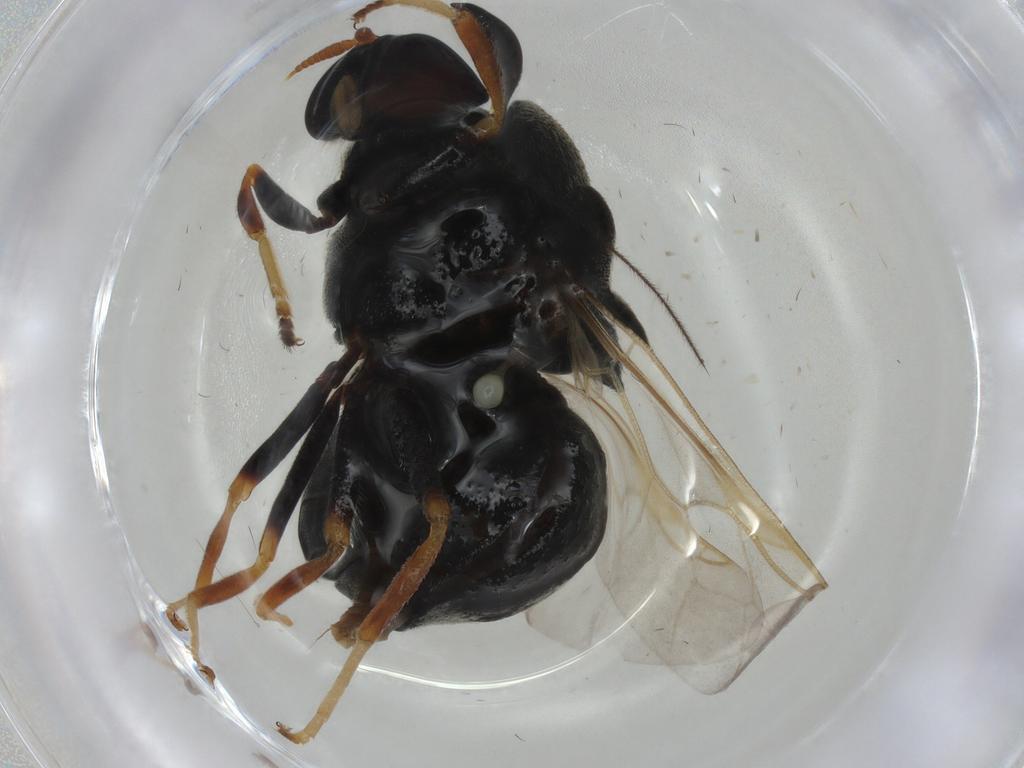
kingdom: Animalia
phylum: Arthropoda
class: Insecta
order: Diptera
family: Stratiomyidae
